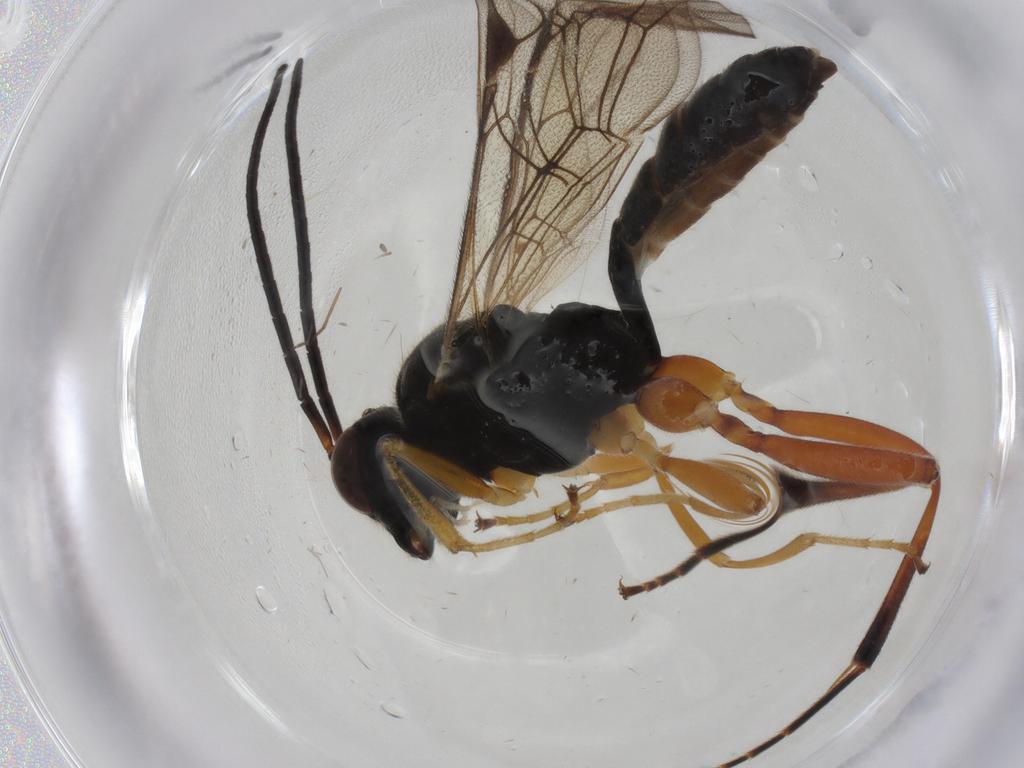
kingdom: Animalia
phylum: Arthropoda
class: Insecta
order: Hymenoptera
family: Ichneumonidae
